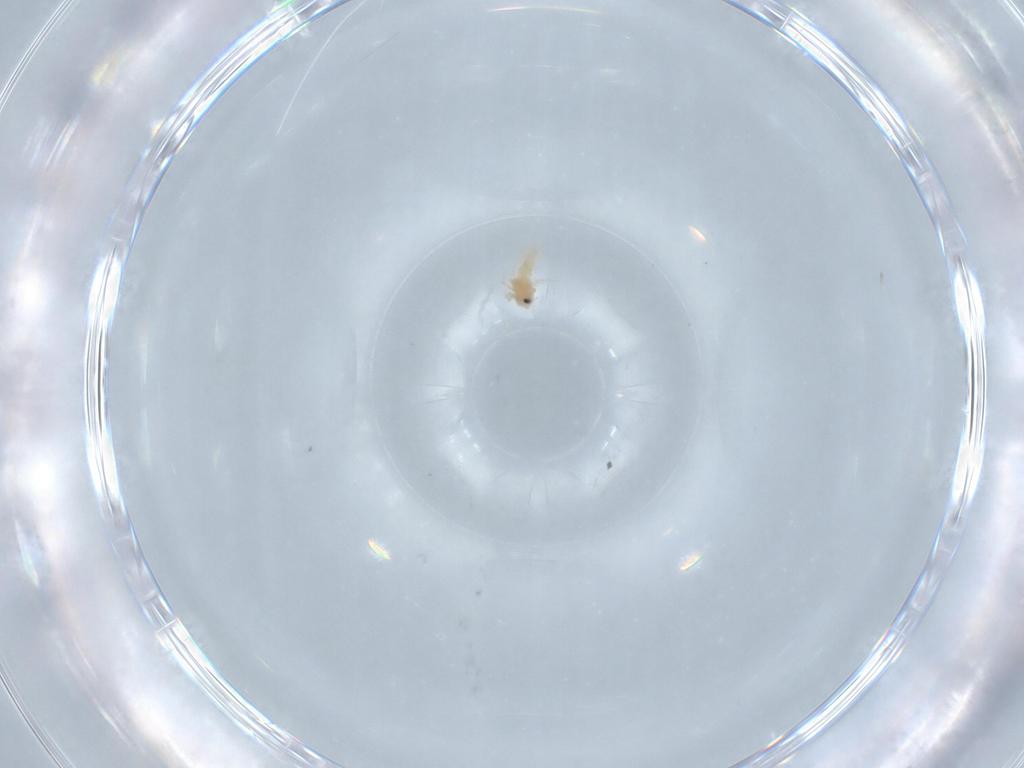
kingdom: Animalia
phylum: Arthropoda
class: Insecta
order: Hemiptera
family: Aleyrodidae
